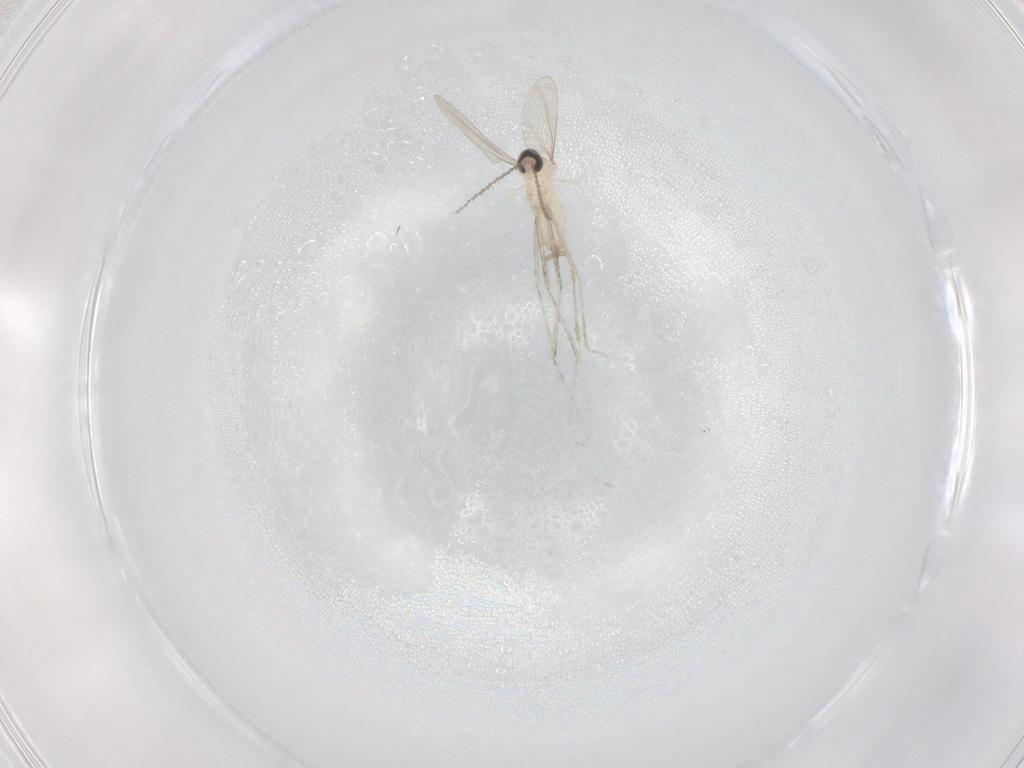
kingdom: Animalia
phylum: Arthropoda
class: Insecta
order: Diptera
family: Cecidomyiidae
